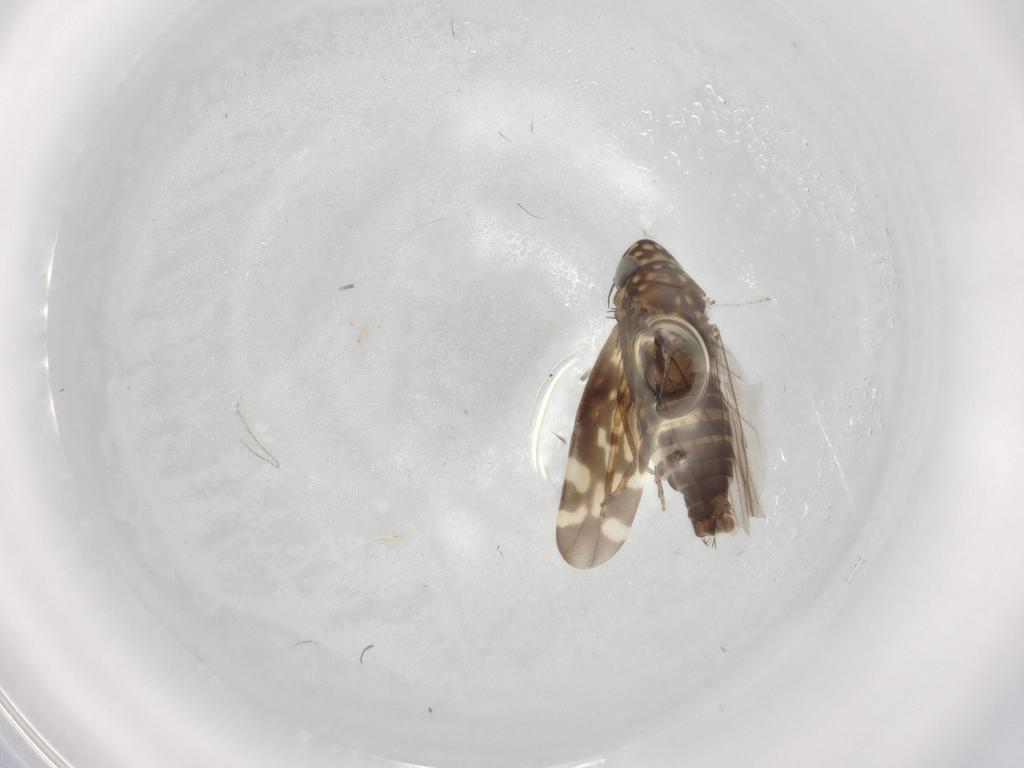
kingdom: Animalia
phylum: Arthropoda
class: Insecta
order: Hemiptera
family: Cicadellidae
